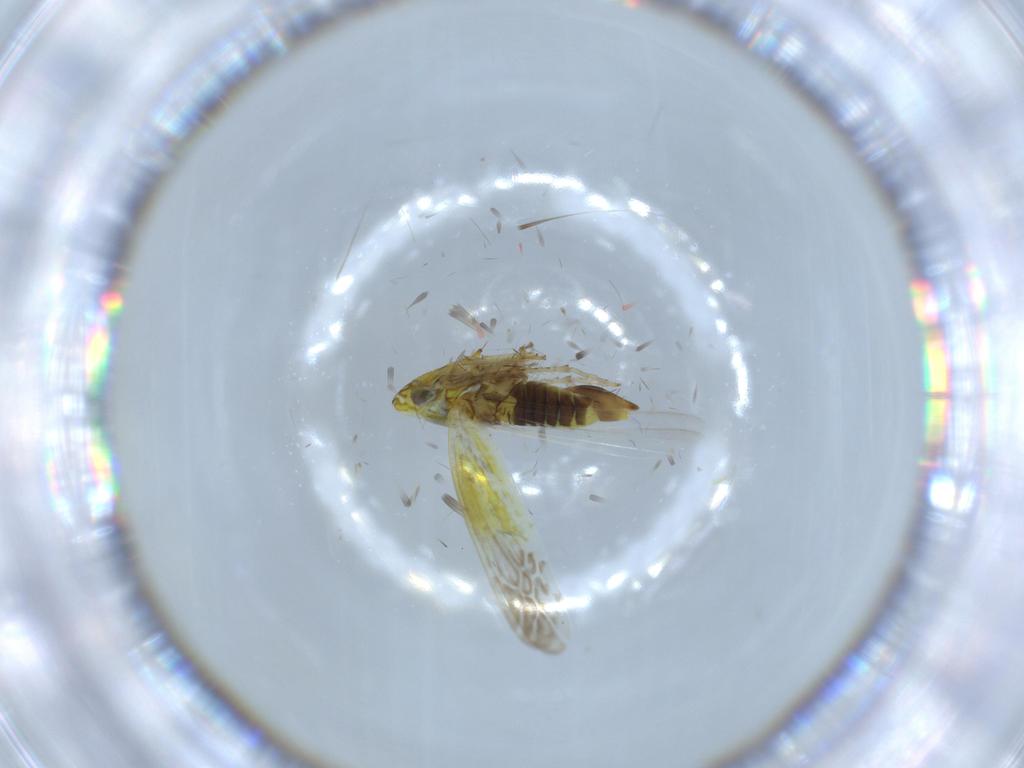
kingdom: Animalia
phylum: Arthropoda
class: Insecta
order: Hemiptera
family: Cicadellidae
